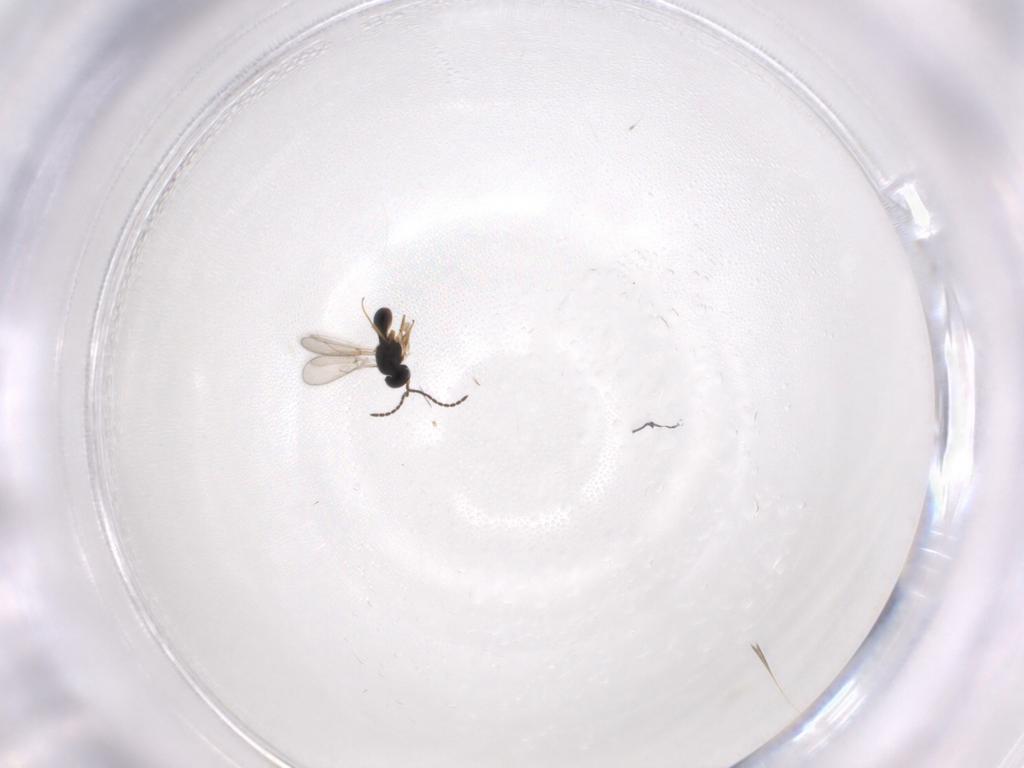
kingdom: Animalia
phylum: Arthropoda
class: Insecta
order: Hymenoptera
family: Scelionidae
